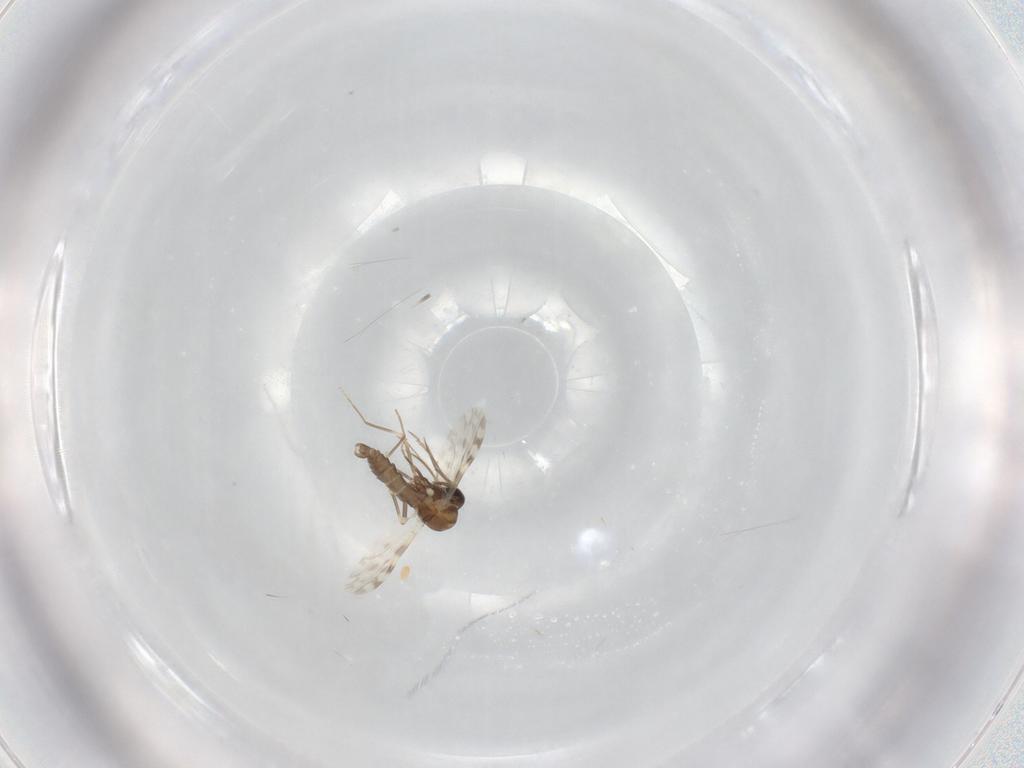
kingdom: Animalia
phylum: Arthropoda
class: Insecta
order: Diptera
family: Ceratopogonidae
